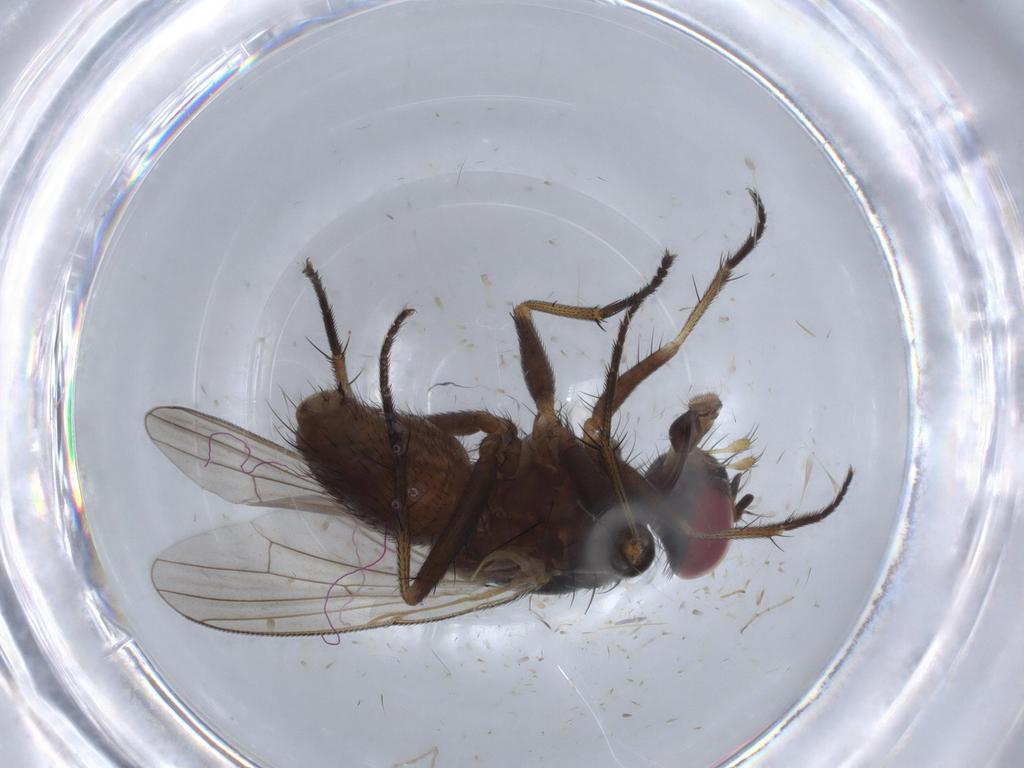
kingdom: Animalia
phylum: Arthropoda
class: Insecta
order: Diptera
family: Muscidae
